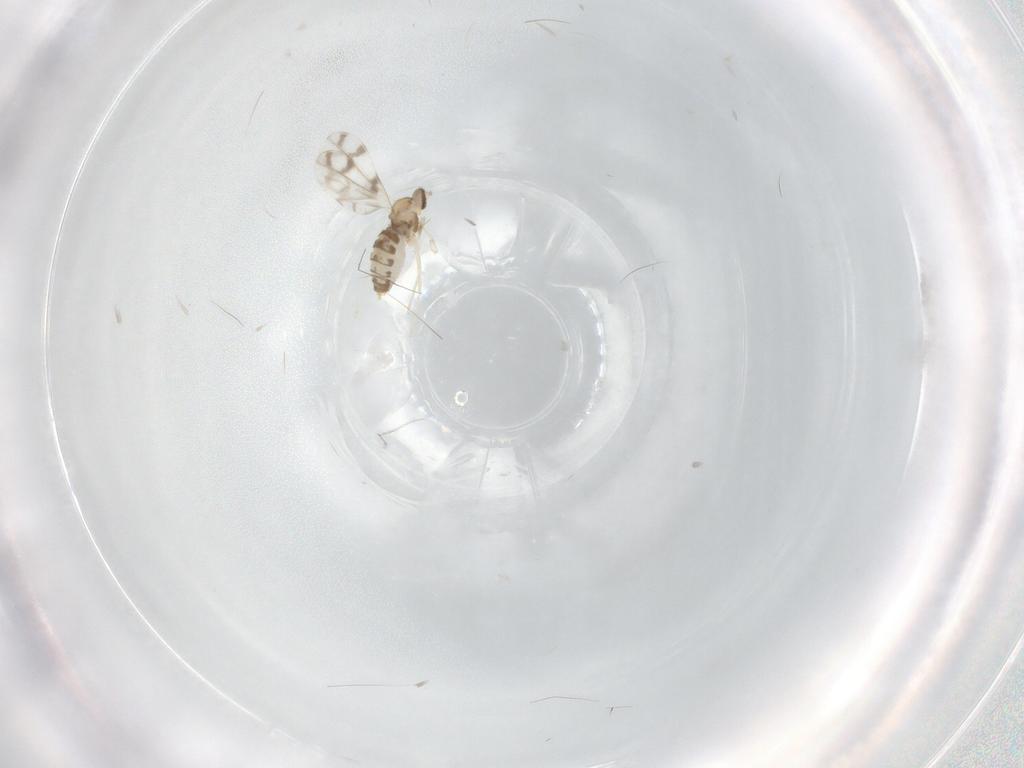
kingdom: Animalia
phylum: Arthropoda
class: Insecta
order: Diptera
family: Cecidomyiidae
